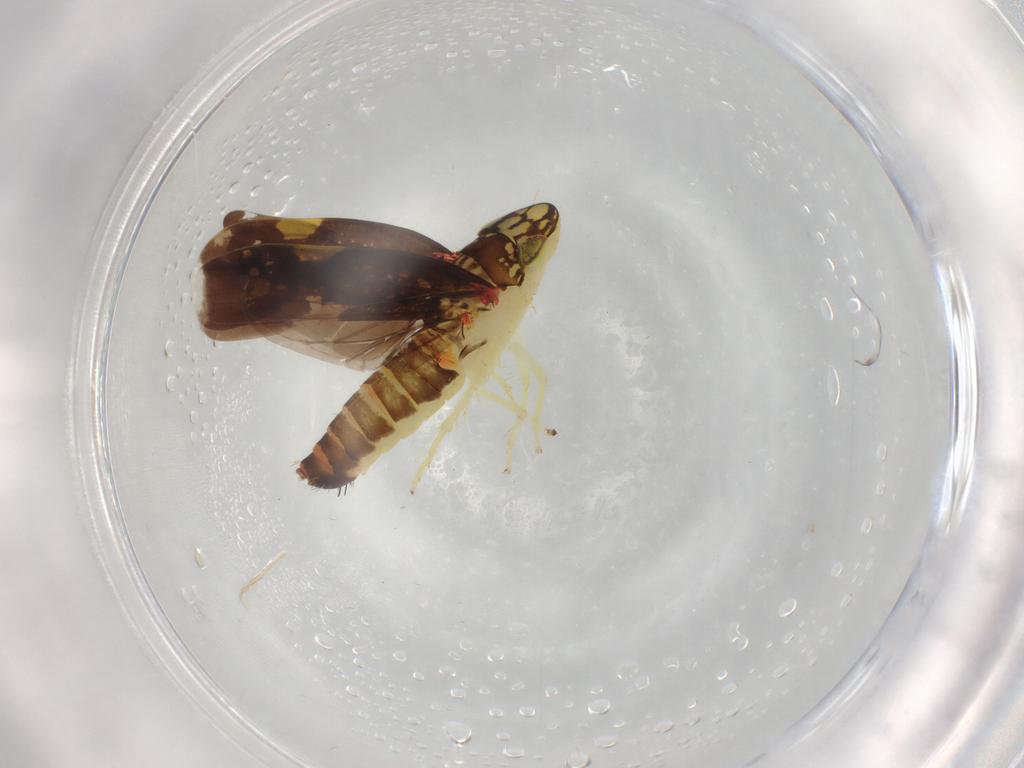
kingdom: Animalia
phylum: Arthropoda
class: Insecta
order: Hemiptera
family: Cicadellidae
